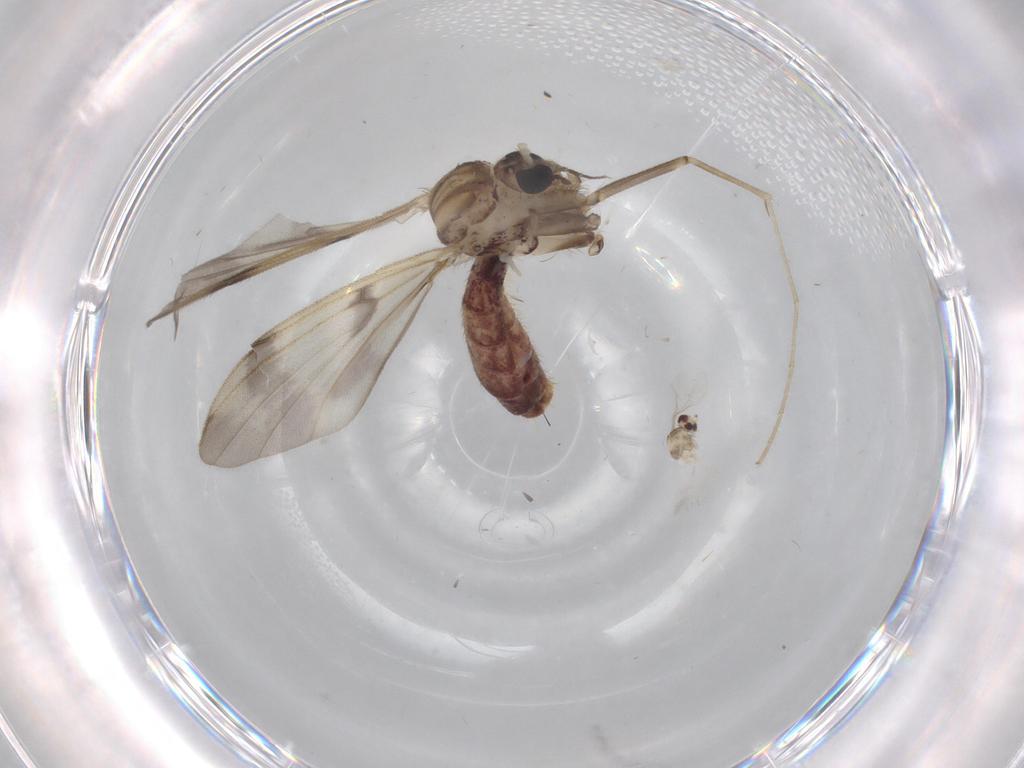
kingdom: Animalia
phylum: Arthropoda
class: Insecta
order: Diptera
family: Mycetophilidae
